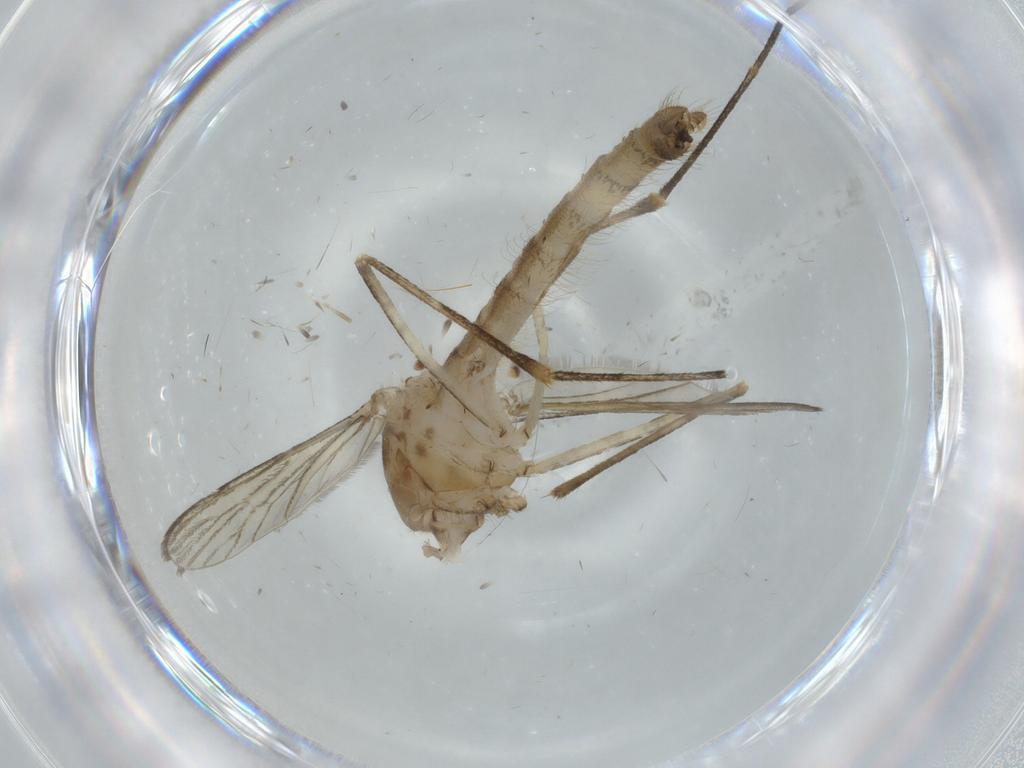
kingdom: Animalia
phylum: Arthropoda
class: Insecta
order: Diptera
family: Culicidae
